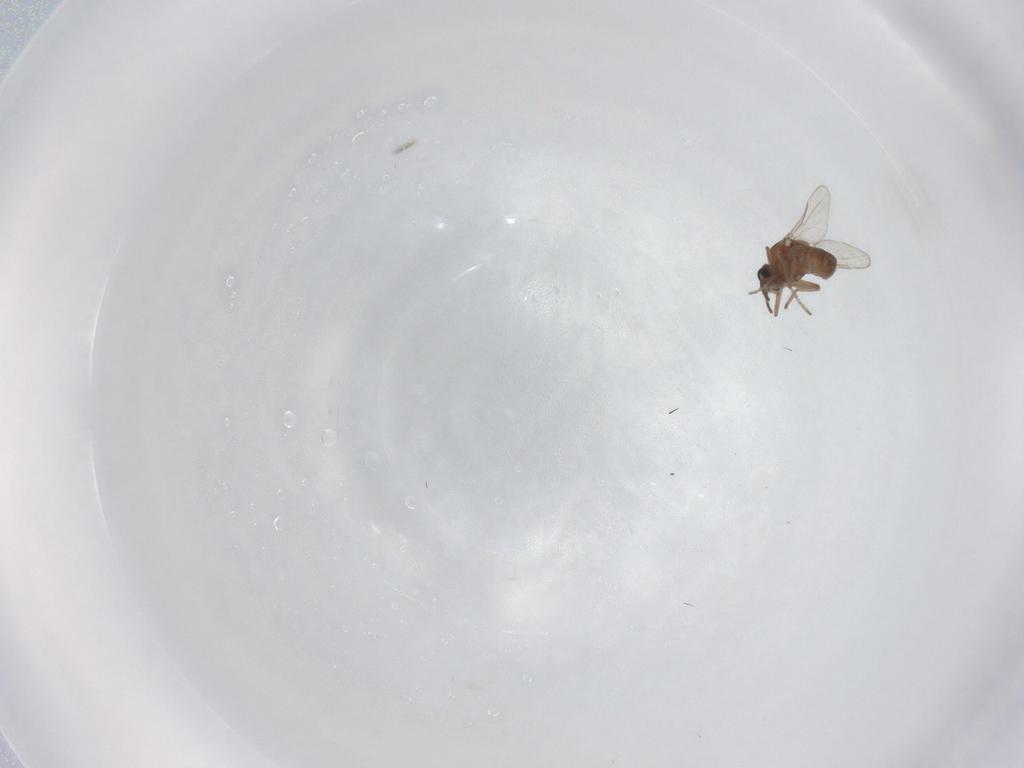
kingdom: Animalia
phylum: Arthropoda
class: Insecta
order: Diptera
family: Ceratopogonidae
